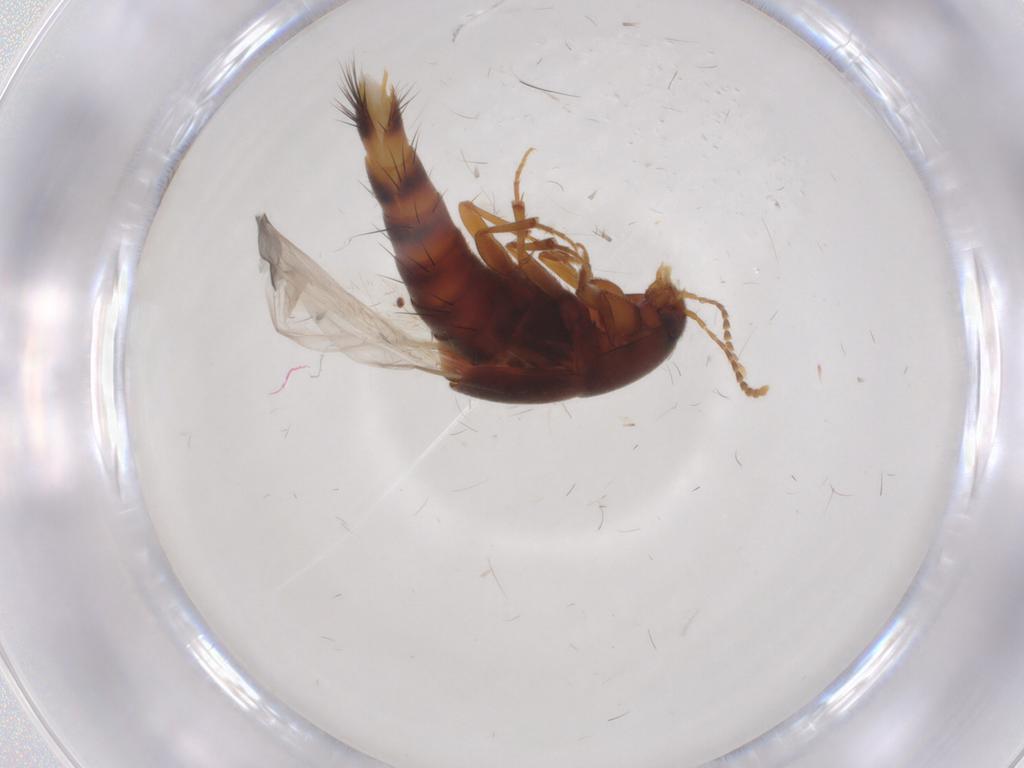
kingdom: Animalia
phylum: Arthropoda
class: Insecta
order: Coleoptera
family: Staphylinidae
